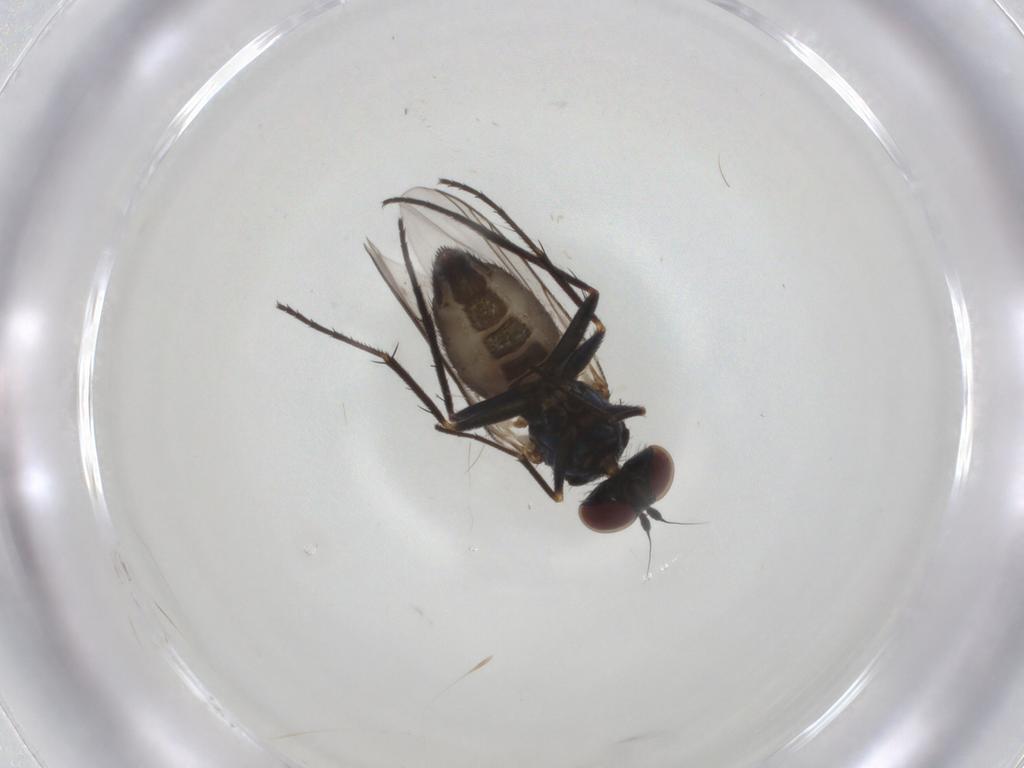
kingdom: Animalia
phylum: Arthropoda
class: Insecta
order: Diptera
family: Dolichopodidae
